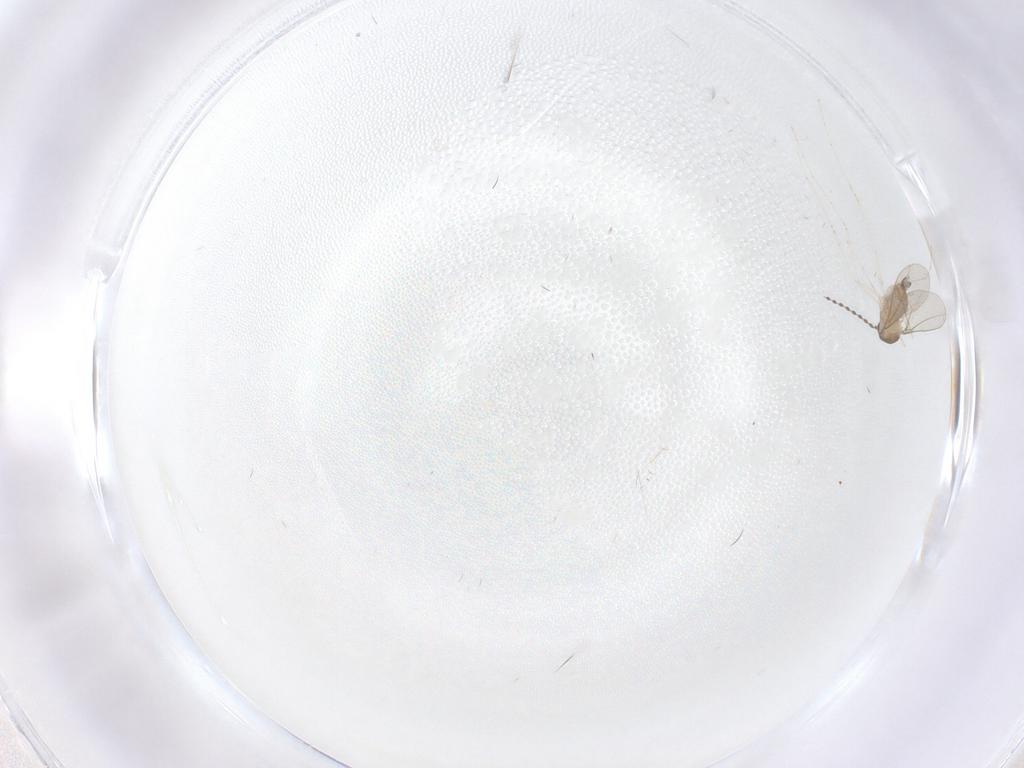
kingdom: Animalia
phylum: Arthropoda
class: Insecta
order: Diptera
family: Cecidomyiidae
